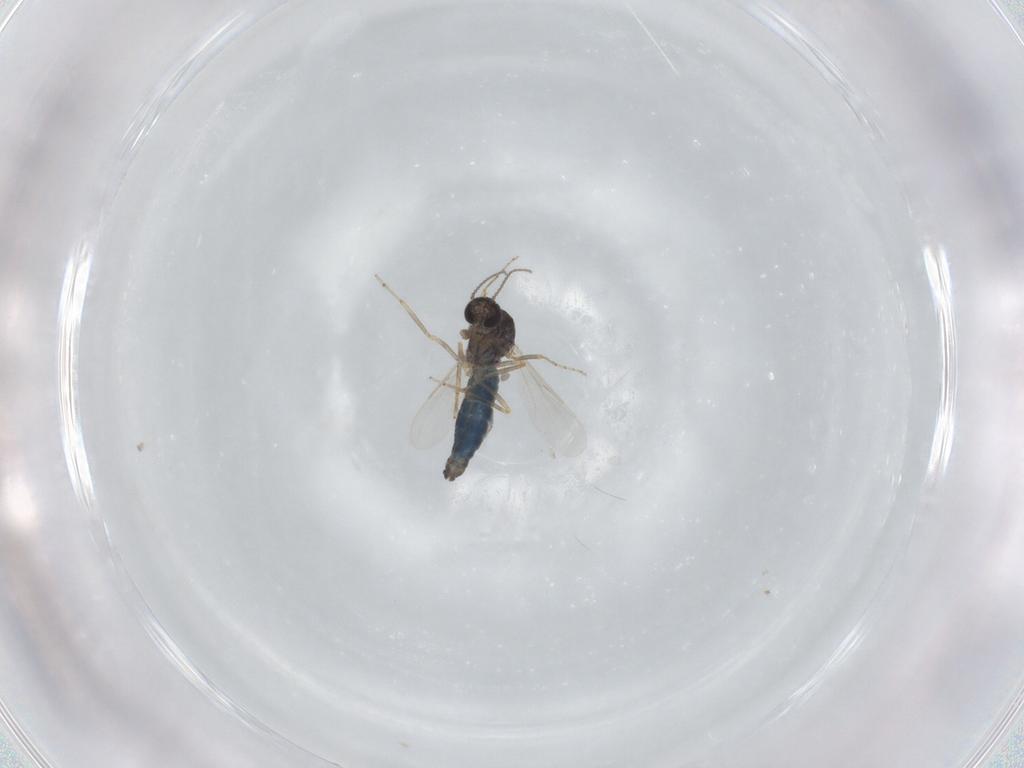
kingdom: Animalia
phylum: Arthropoda
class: Insecta
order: Diptera
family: Ceratopogonidae
